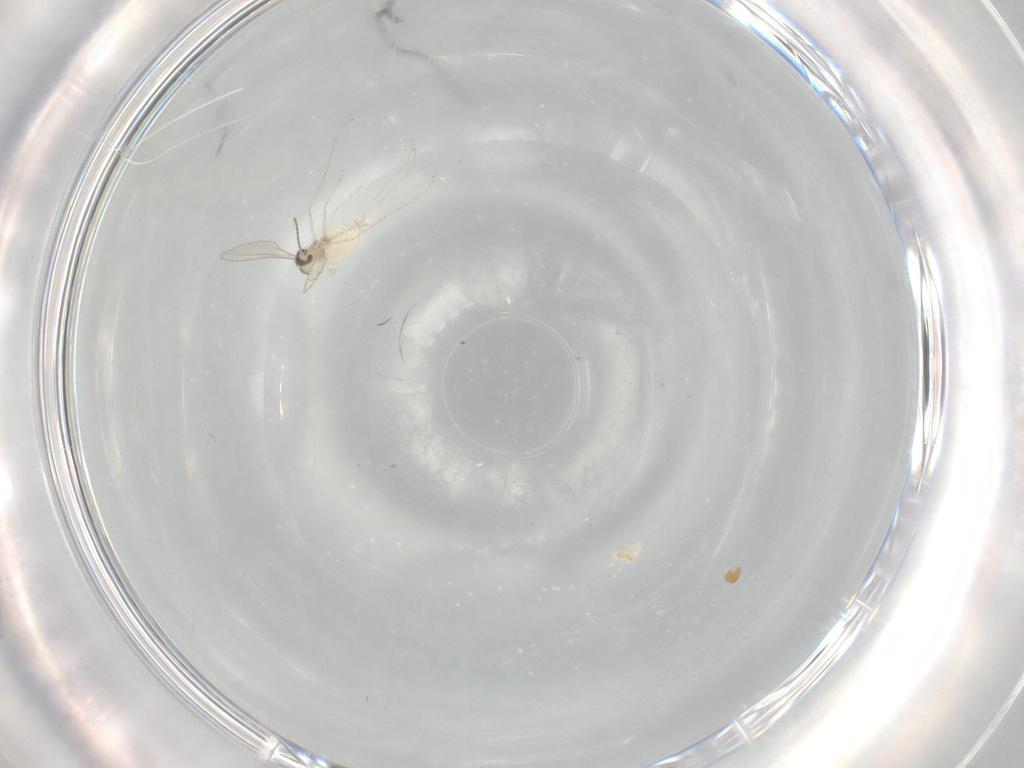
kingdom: Animalia
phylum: Arthropoda
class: Insecta
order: Diptera
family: Cecidomyiidae
